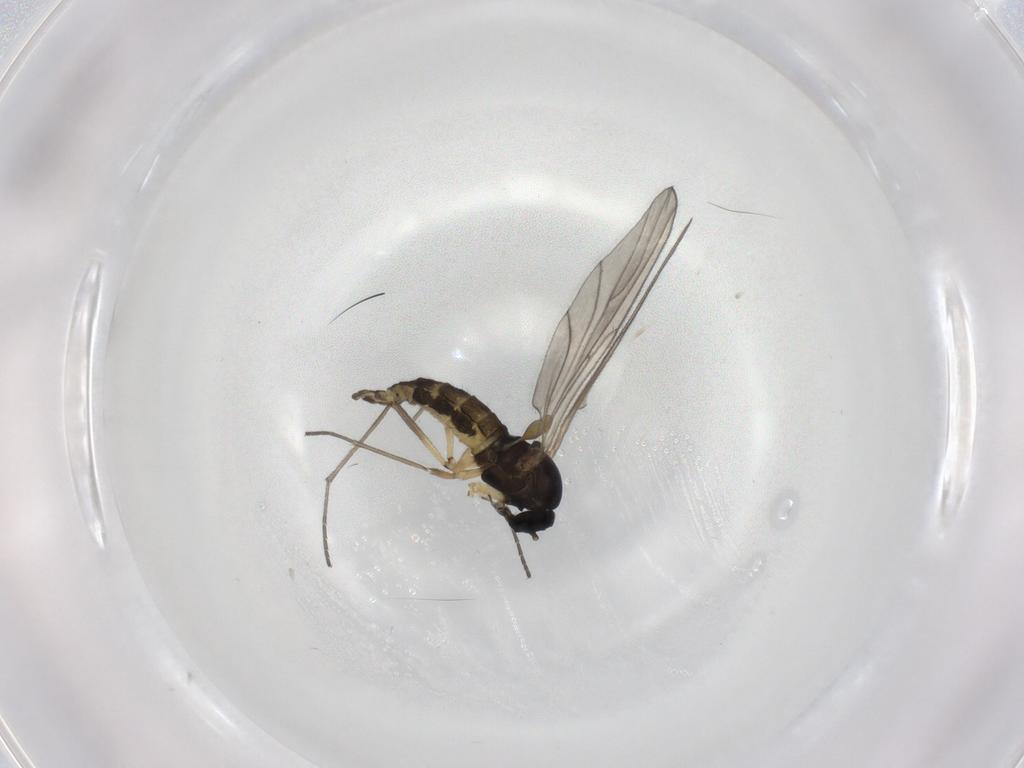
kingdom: Animalia
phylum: Arthropoda
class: Insecta
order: Diptera
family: Sciaridae
